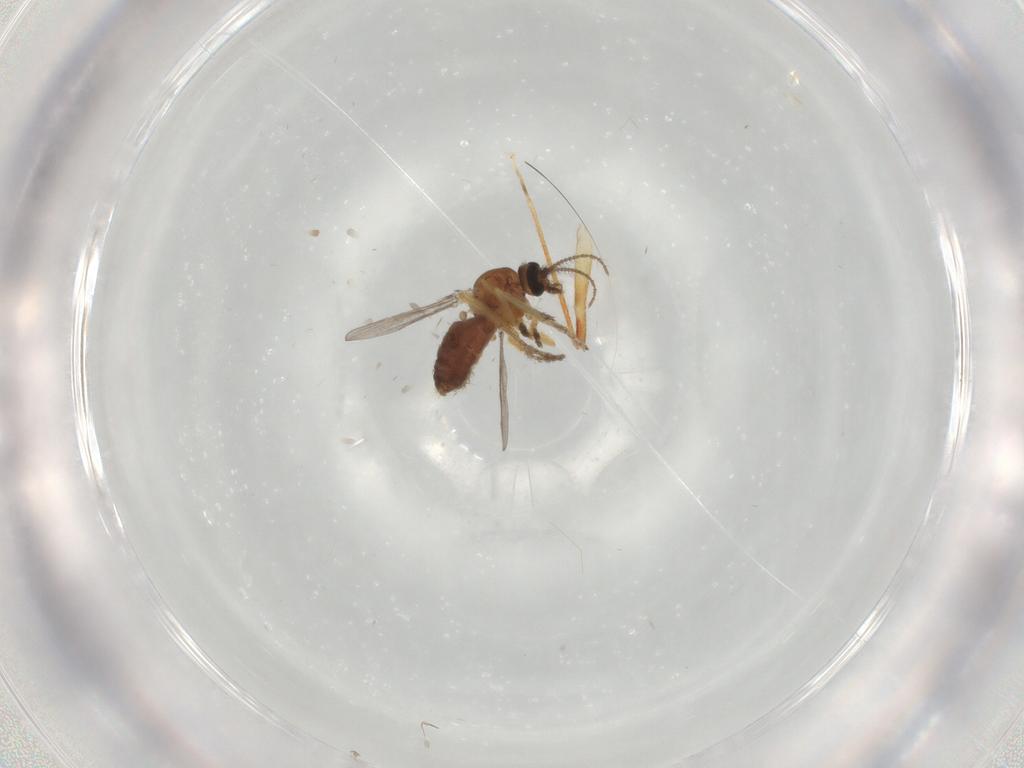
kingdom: Animalia
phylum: Arthropoda
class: Insecta
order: Diptera
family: Ceratopogonidae
